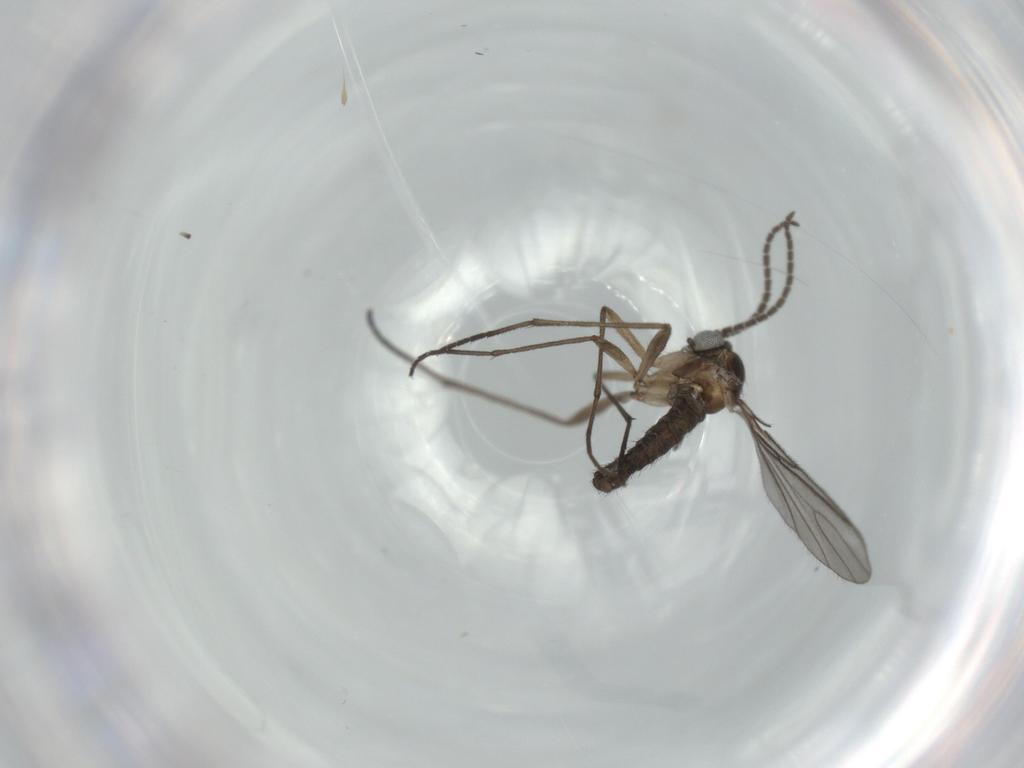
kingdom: Animalia
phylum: Arthropoda
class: Insecta
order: Diptera
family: Sciaridae
